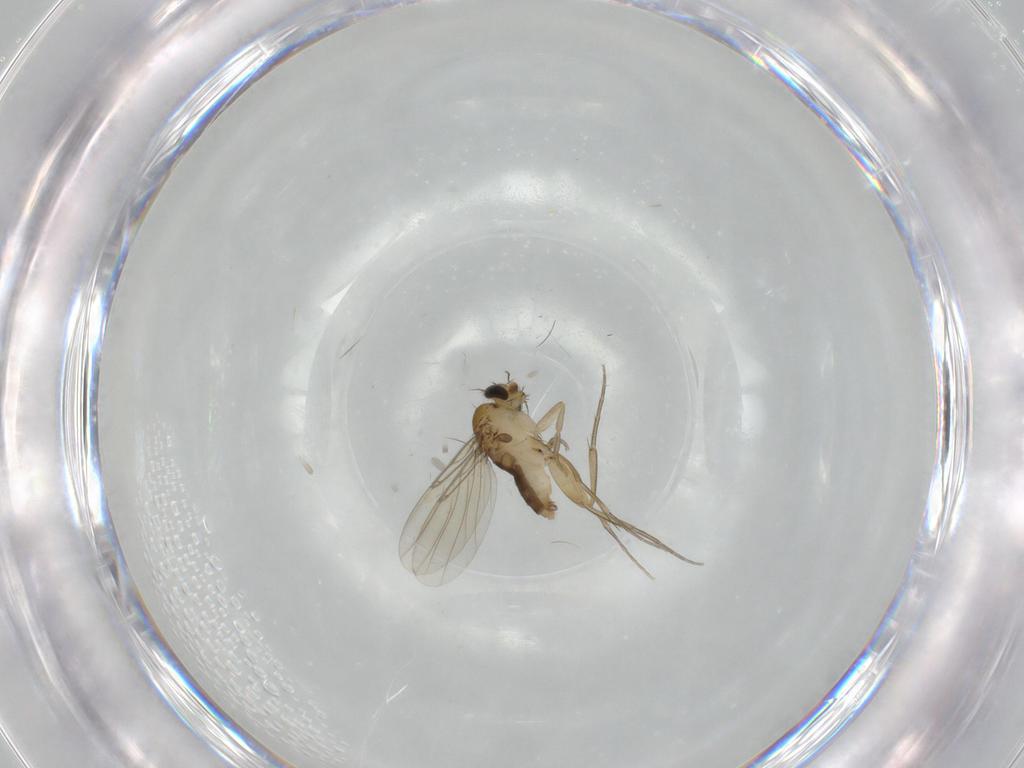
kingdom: Animalia
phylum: Arthropoda
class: Insecta
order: Diptera
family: Phoridae
